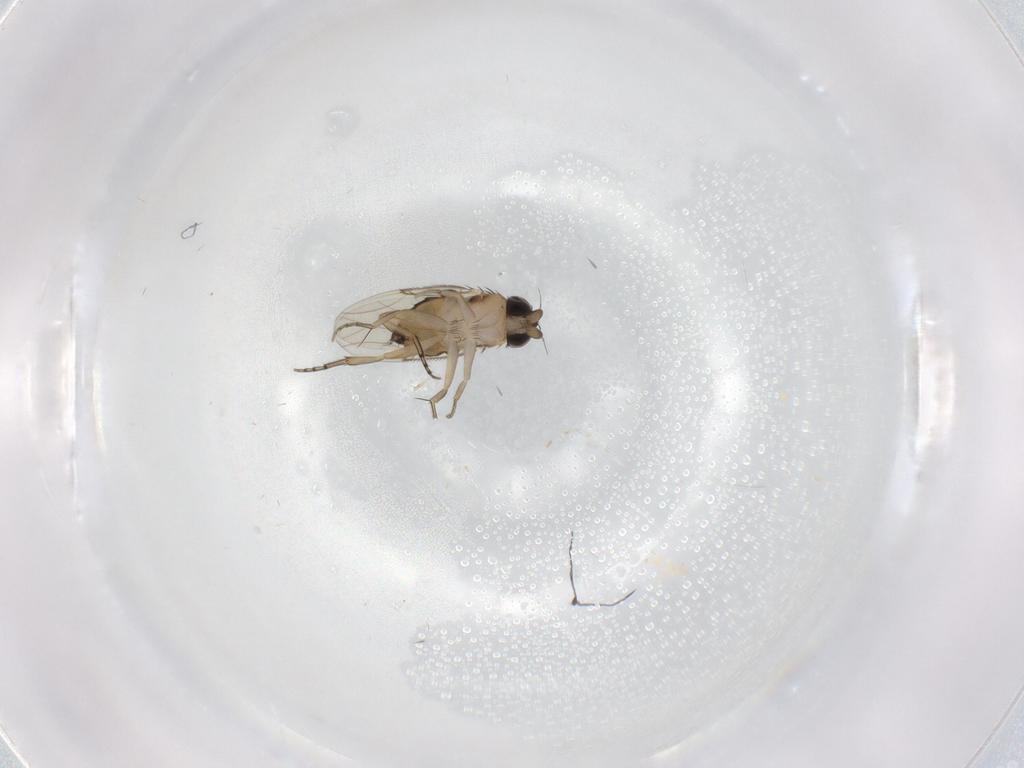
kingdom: Animalia
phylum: Arthropoda
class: Insecta
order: Diptera
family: Phoridae
